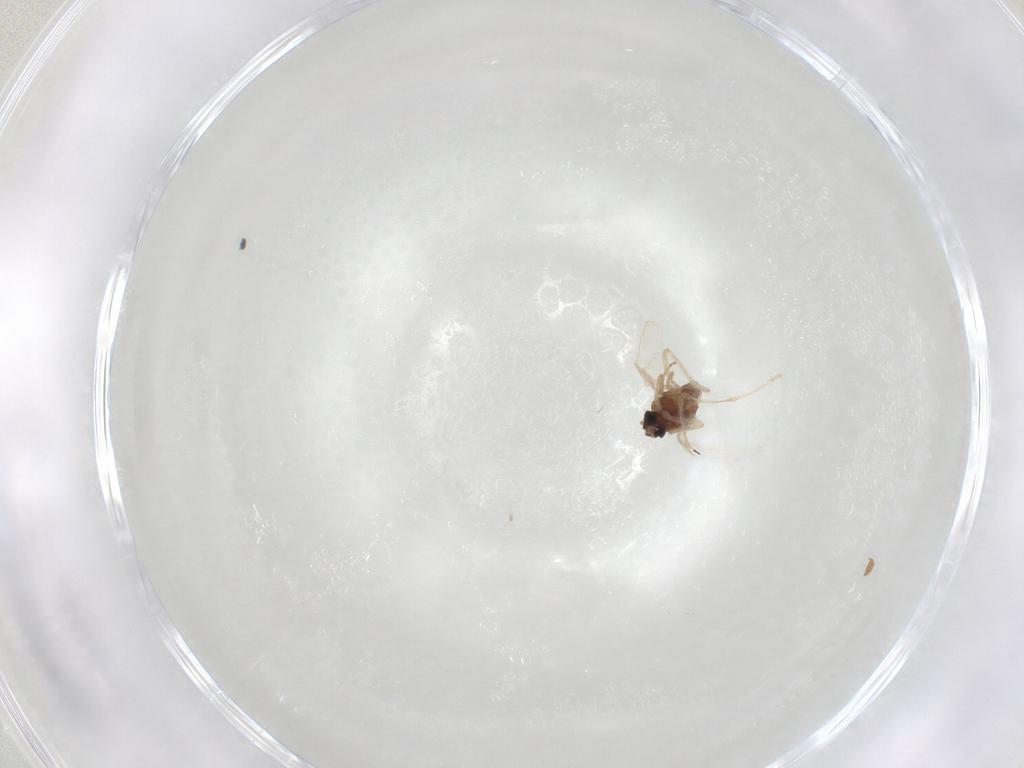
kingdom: Animalia
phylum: Arthropoda
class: Insecta
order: Diptera
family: Ceratopogonidae
